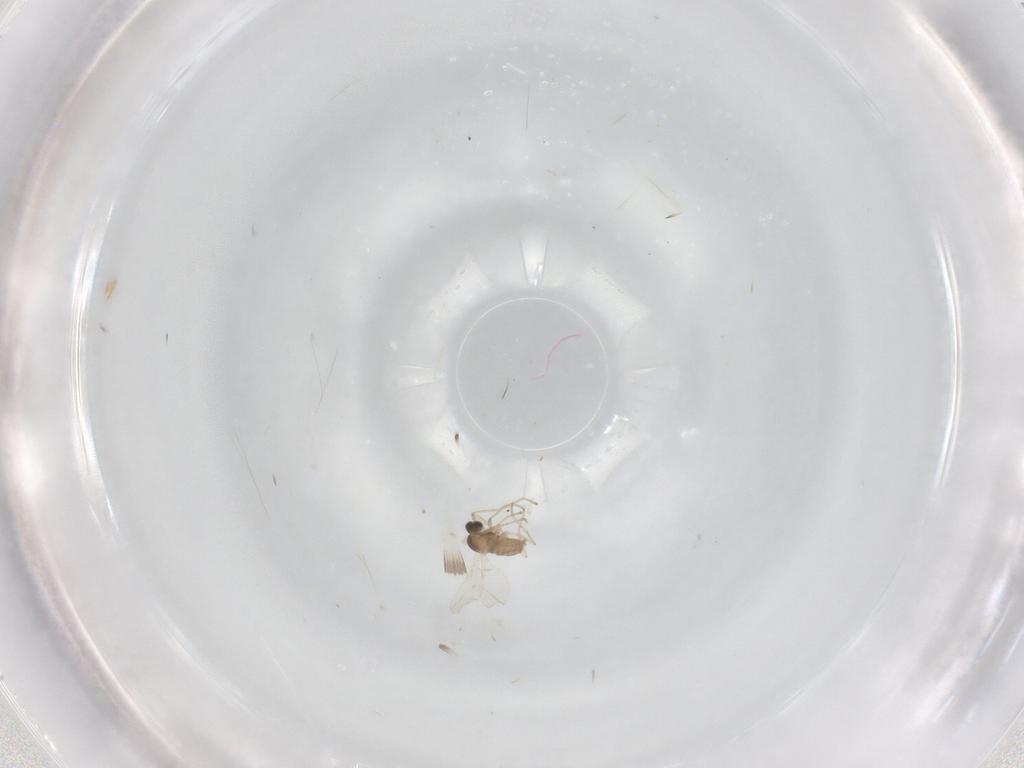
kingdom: Animalia
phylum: Arthropoda
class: Insecta
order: Diptera
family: Cecidomyiidae
